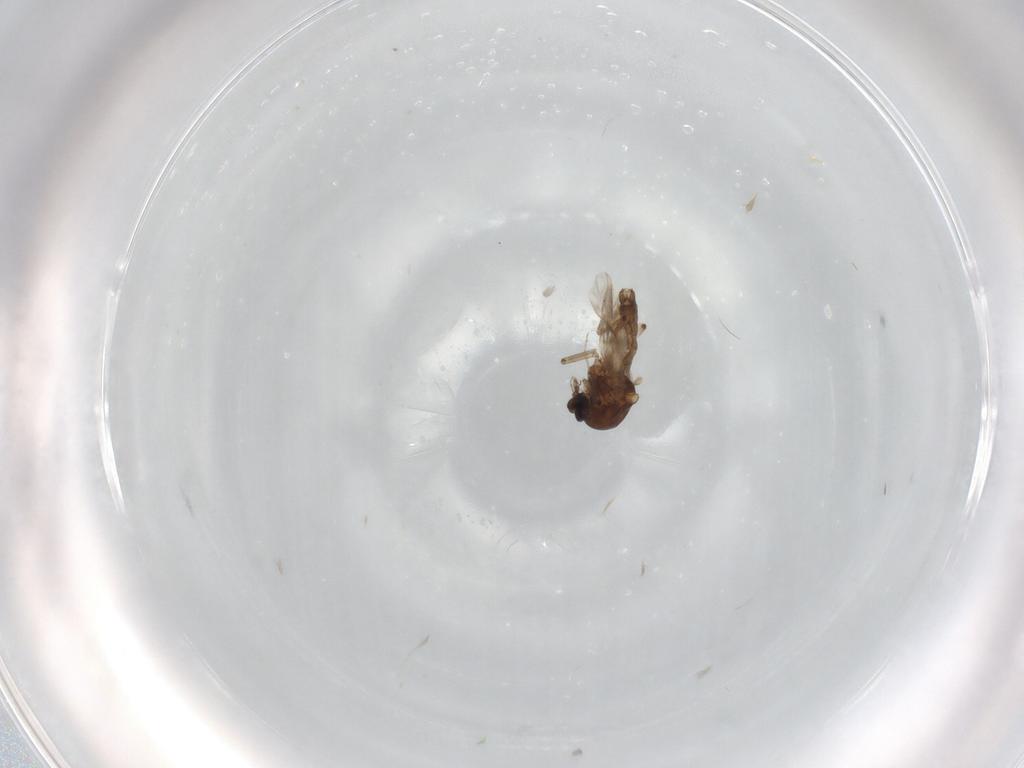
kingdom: Animalia
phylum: Arthropoda
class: Insecta
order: Diptera
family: Ceratopogonidae
